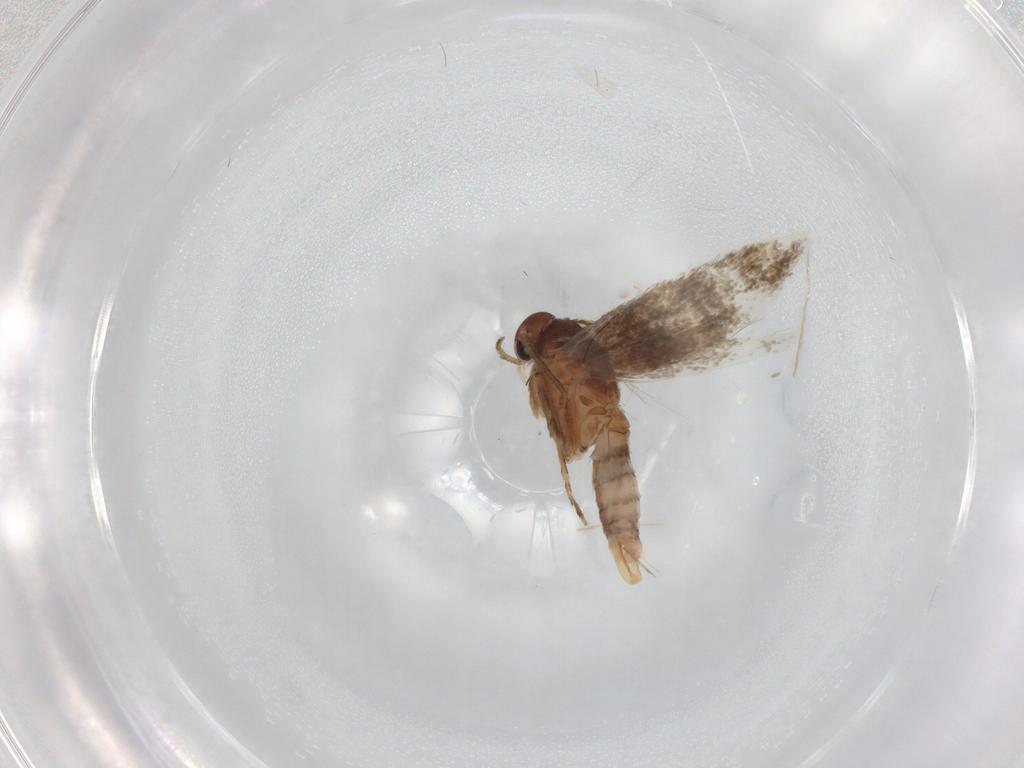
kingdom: Animalia
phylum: Arthropoda
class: Insecta
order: Lepidoptera
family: Elachistidae
